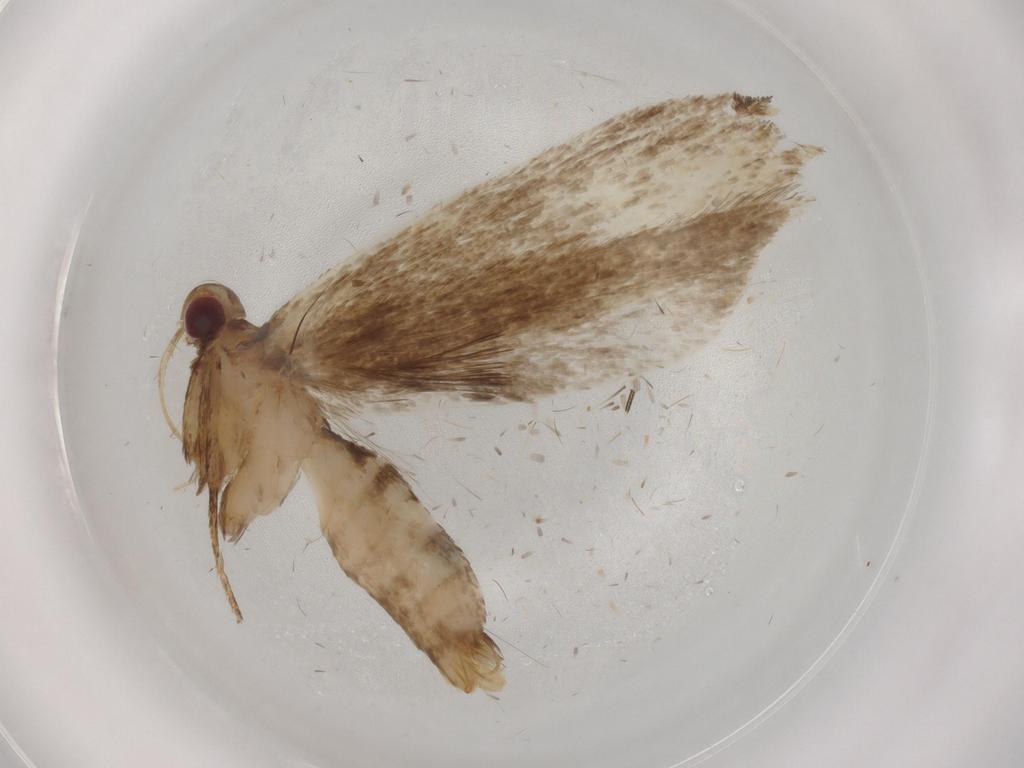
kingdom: Animalia
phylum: Arthropoda
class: Insecta
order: Lepidoptera
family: Gelechiidae
